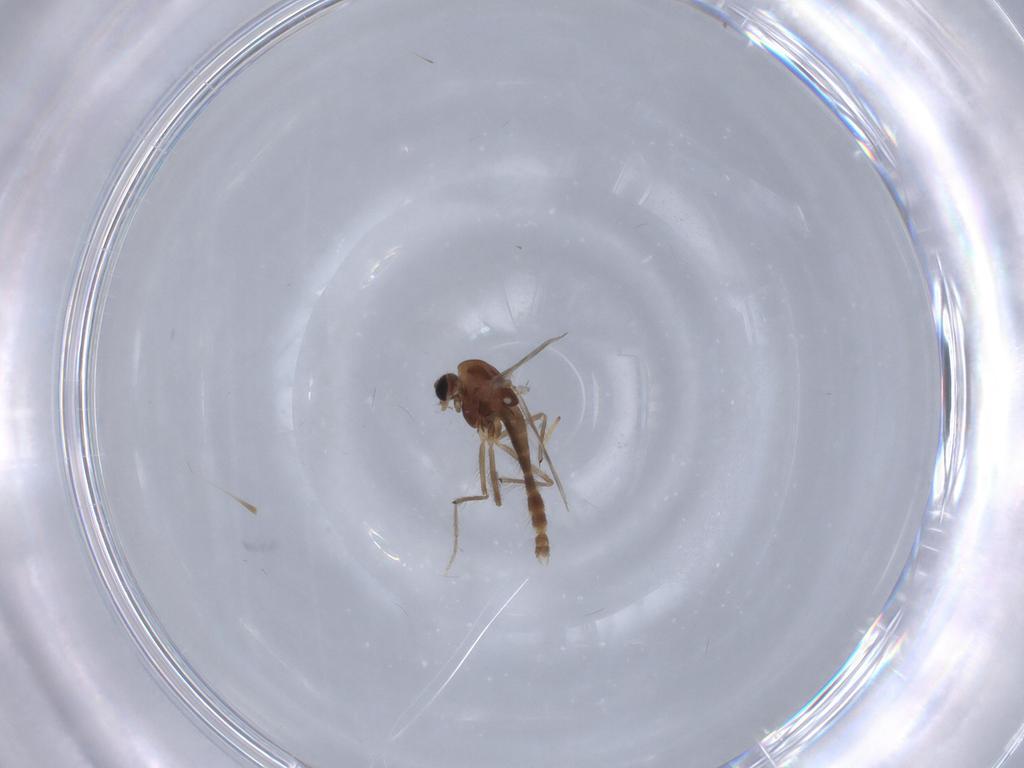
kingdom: Animalia
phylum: Arthropoda
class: Insecta
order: Diptera
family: Chironomidae
